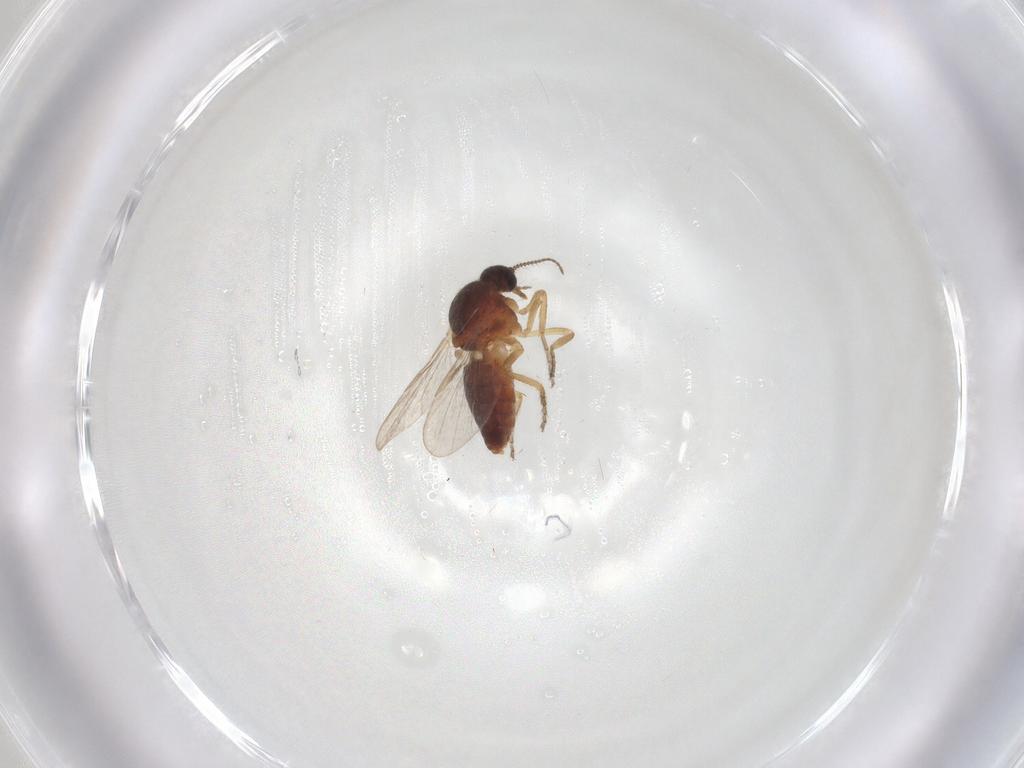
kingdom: Animalia
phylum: Arthropoda
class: Insecta
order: Diptera
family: Ceratopogonidae
